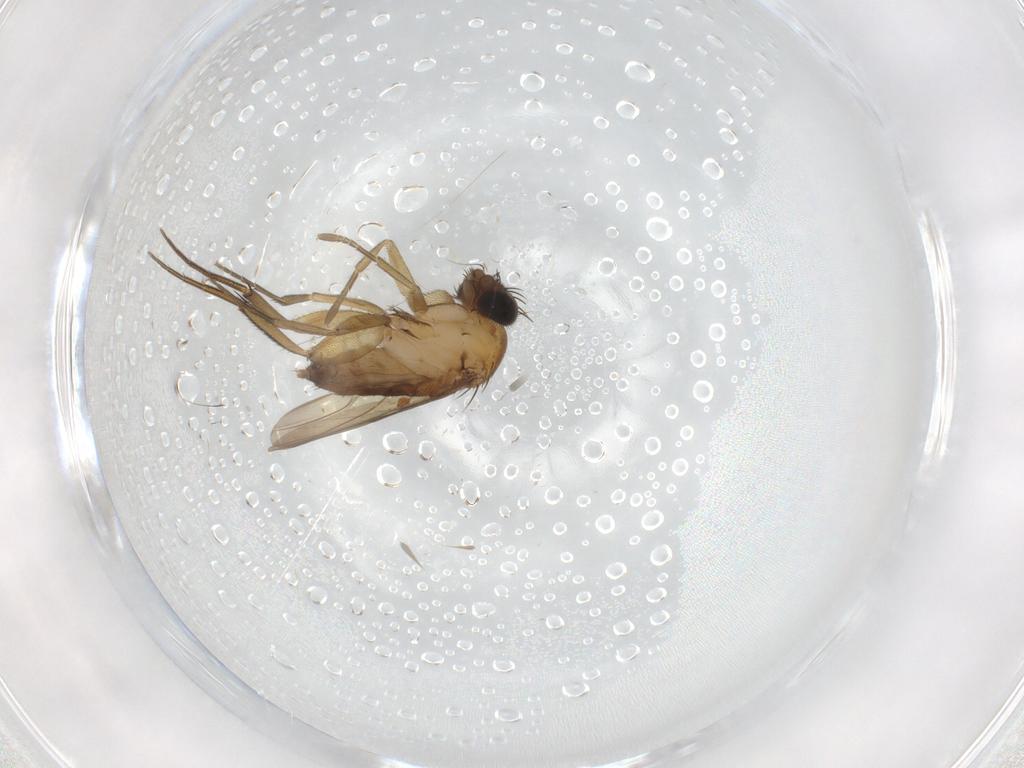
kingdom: Animalia
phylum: Arthropoda
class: Insecta
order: Diptera
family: Phoridae
